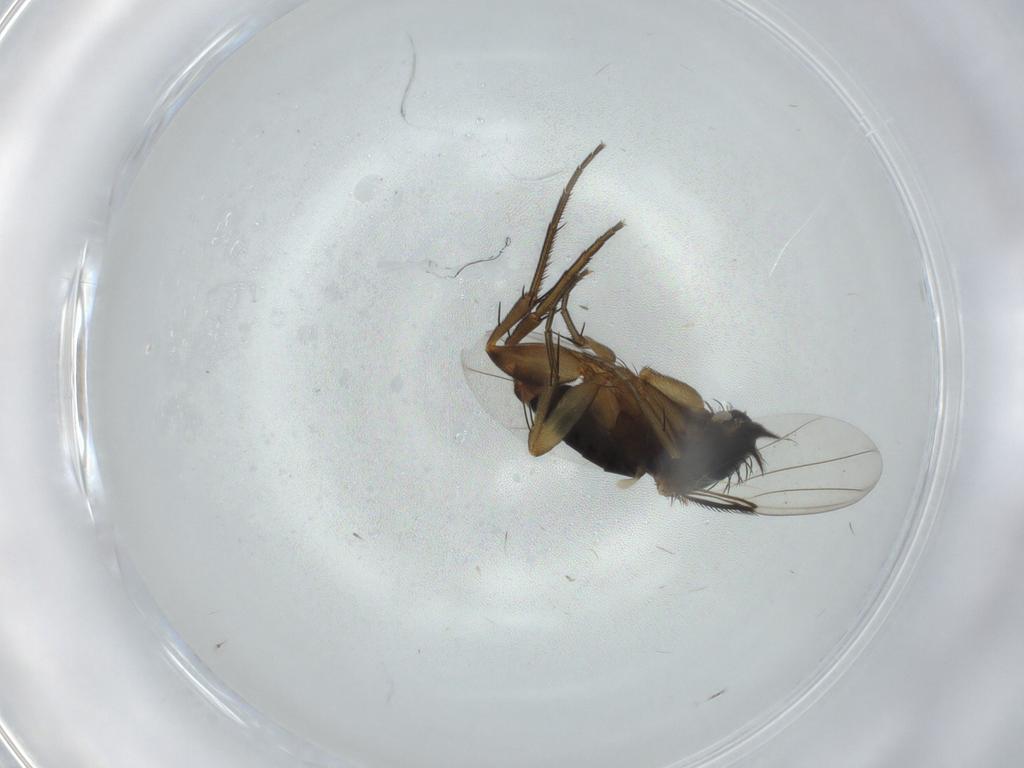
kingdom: Animalia
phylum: Arthropoda
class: Insecta
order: Diptera
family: Phoridae
